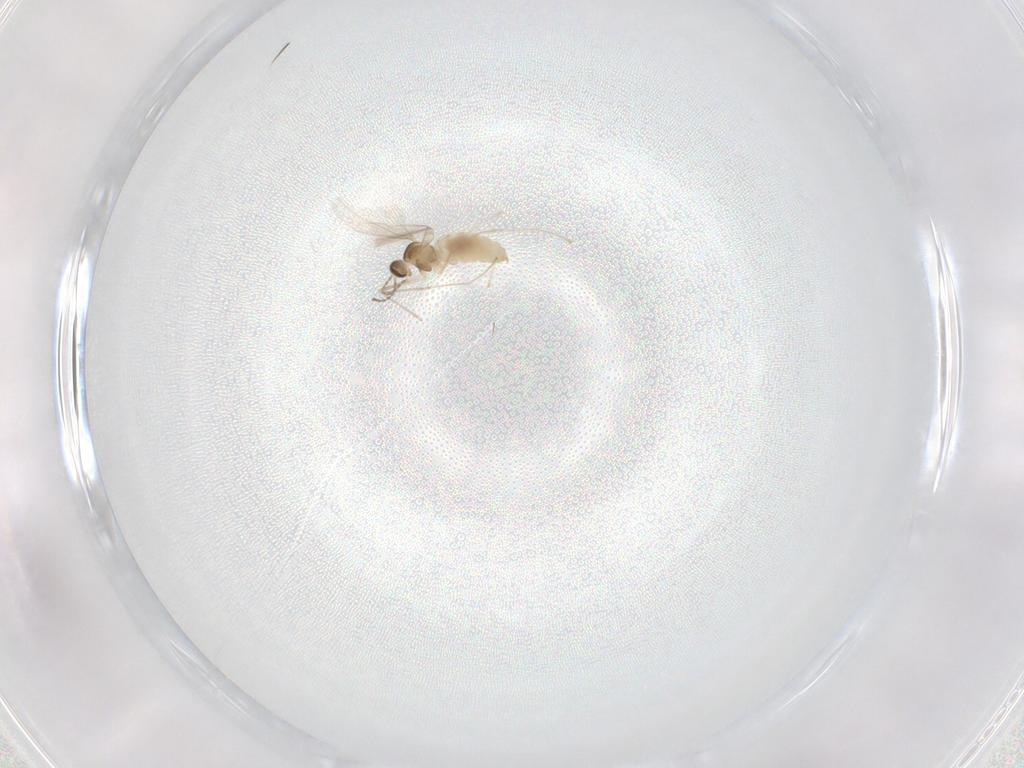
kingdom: Animalia
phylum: Arthropoda
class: Insecta
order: Diptera
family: Cecidomyiidae
